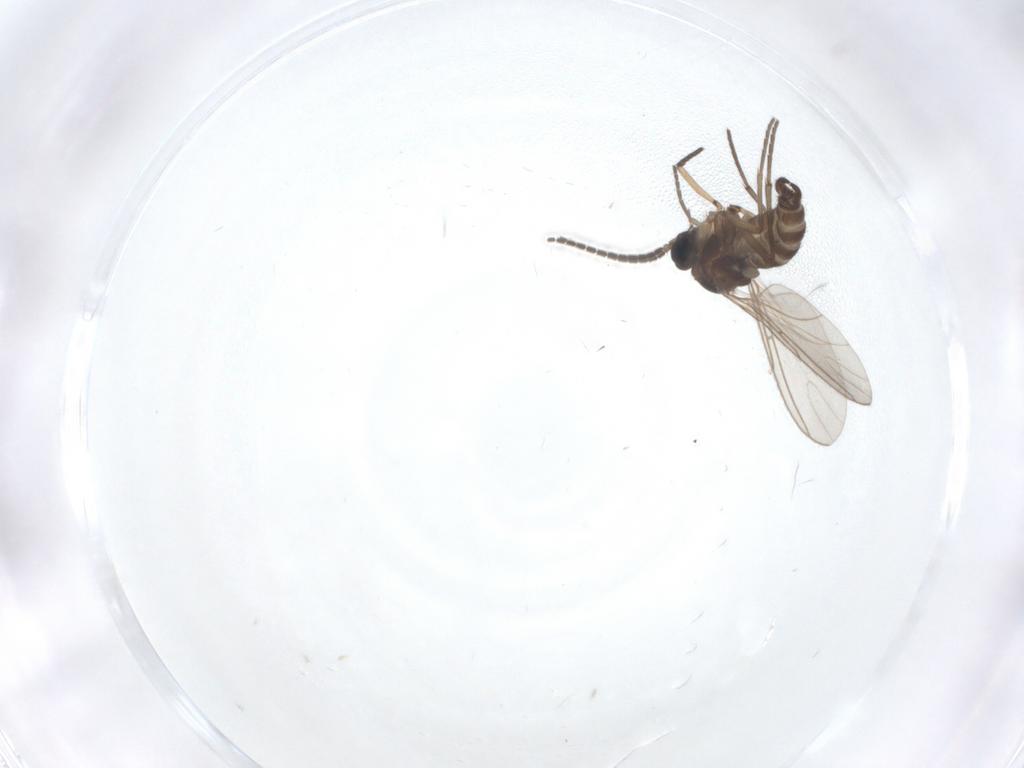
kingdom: Animalia
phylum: Arthropoda
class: Insecta
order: Diptera
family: Sciaridae
